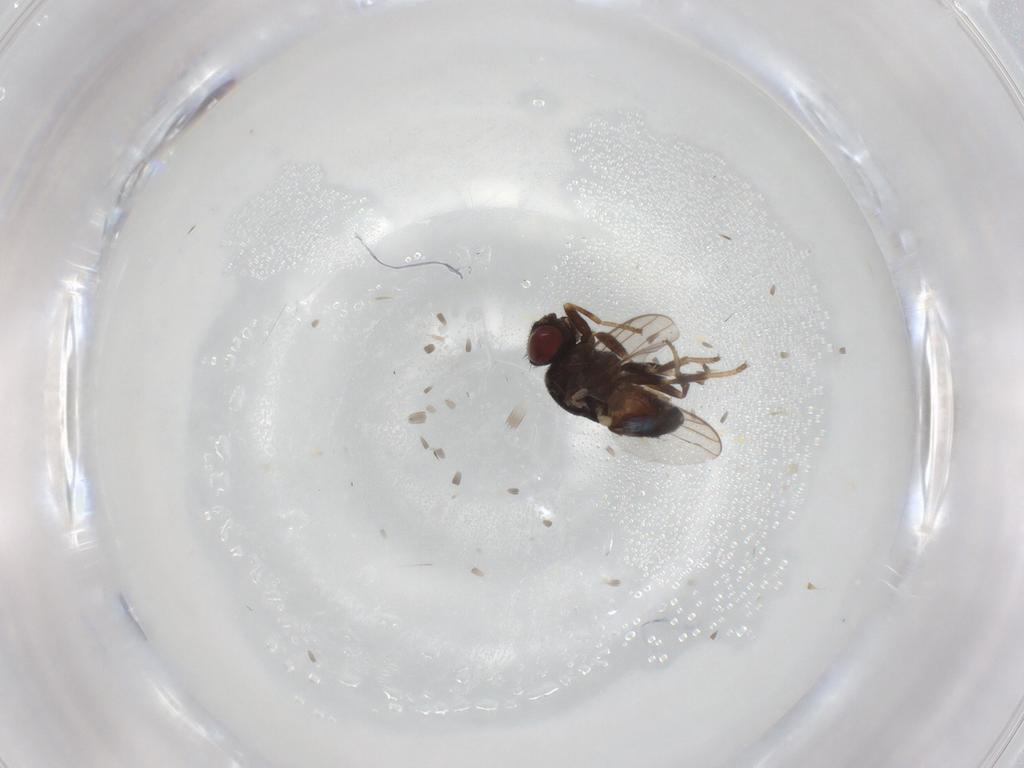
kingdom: Animalia
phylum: Arthropoda
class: Insecta
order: Diptera
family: Chloropidae
